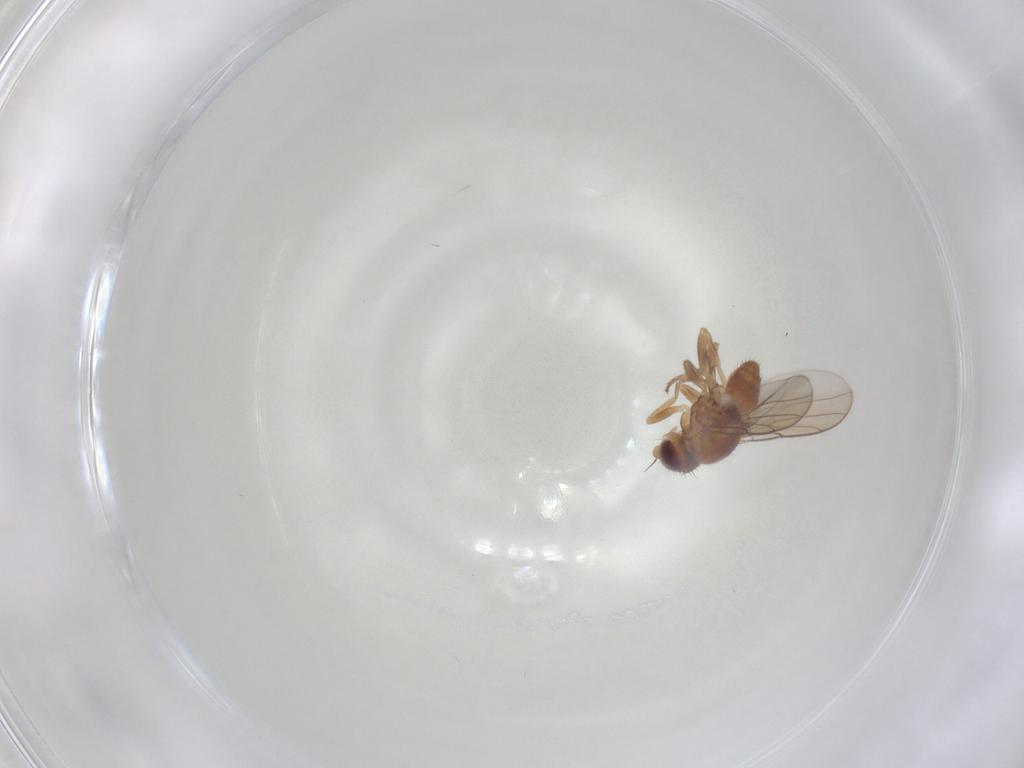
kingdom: Animalia
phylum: Arthropoda
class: Insecta
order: Diptera
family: Chloropidae
